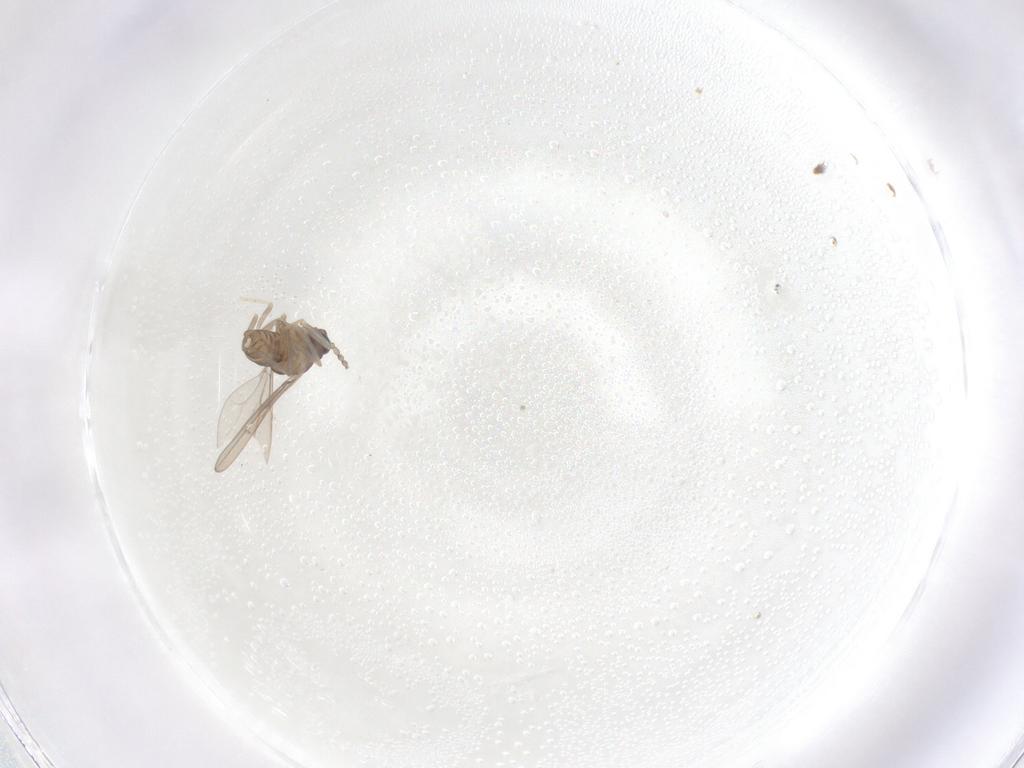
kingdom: Animalia
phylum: Arthropoda
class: Insecta
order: Diptera
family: Cecidomyiidae
